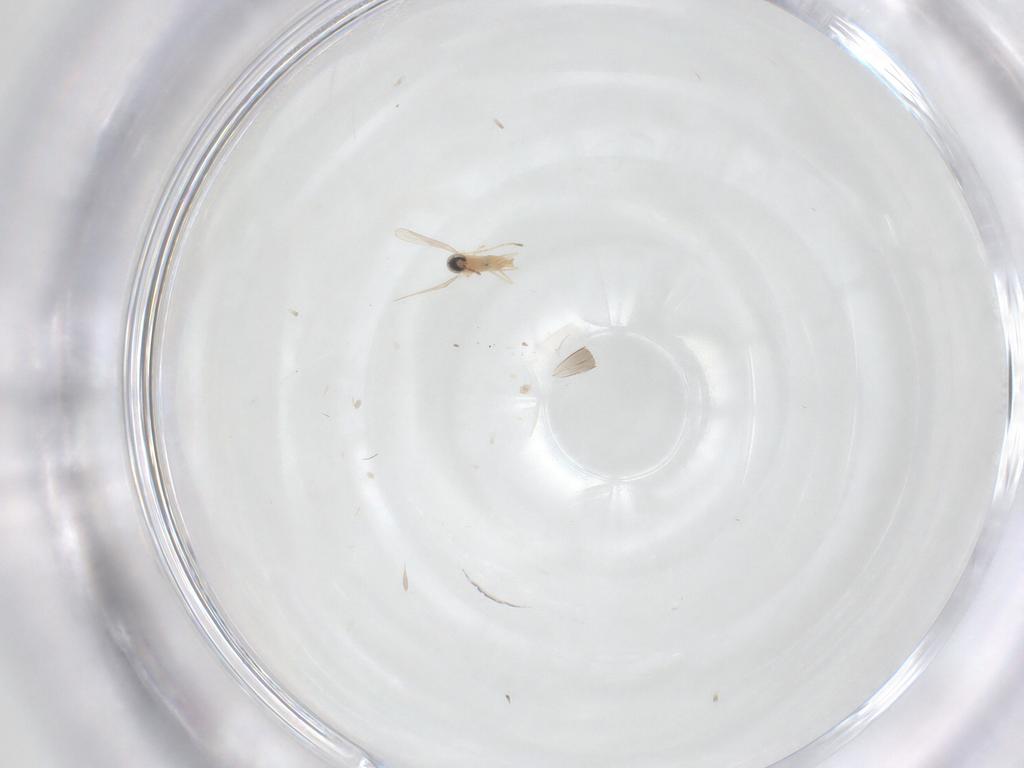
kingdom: Animalia
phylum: Arthropoda
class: Insecta
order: Diptera
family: Cecidomyiidae
